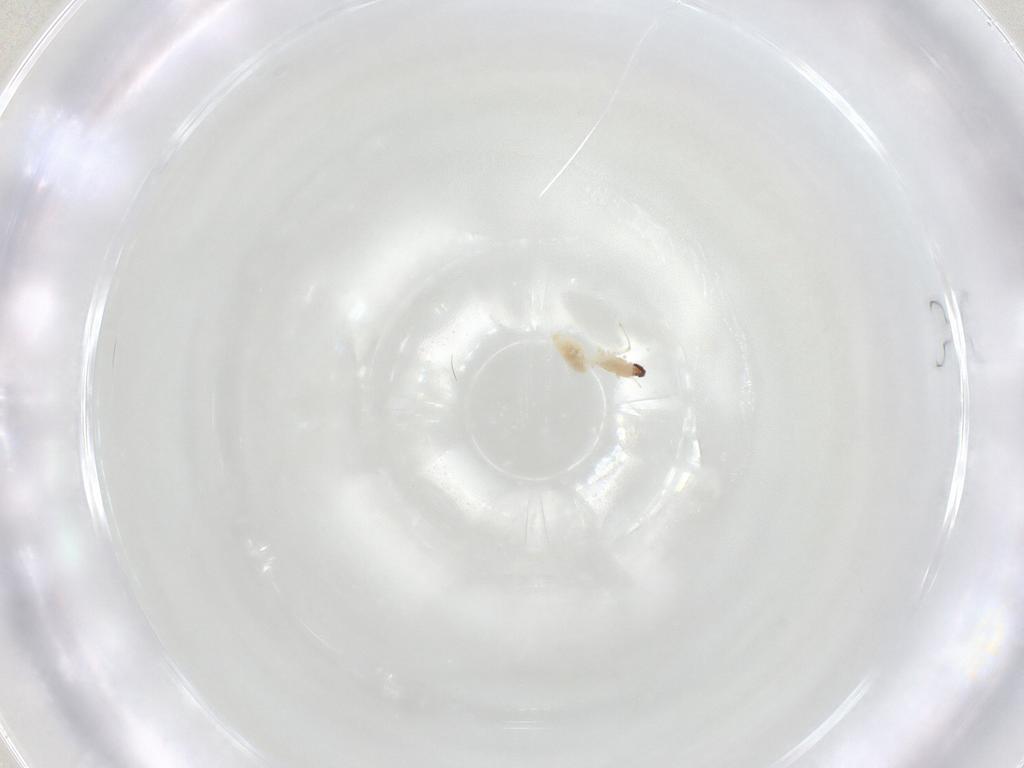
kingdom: Animalia
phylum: Arthropoda
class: Insecta
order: Diptera
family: Cecidomyiidae
